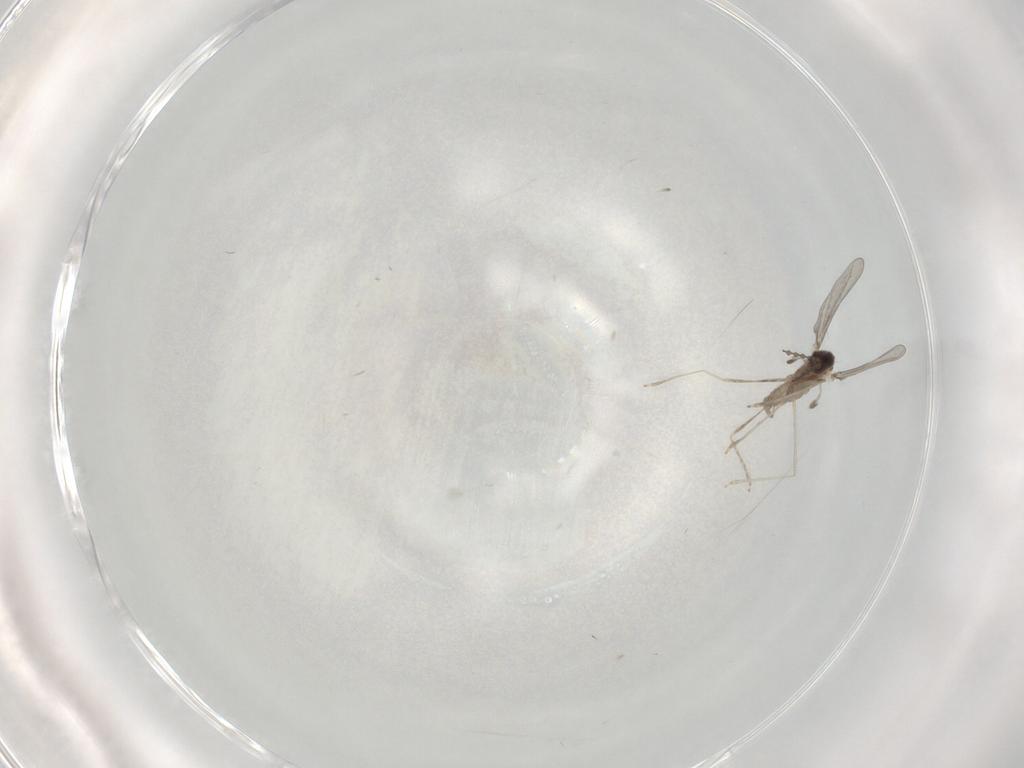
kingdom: Animalia
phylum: Arthropoda
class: Insecta
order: Diptera
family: Cecidomyiidae
